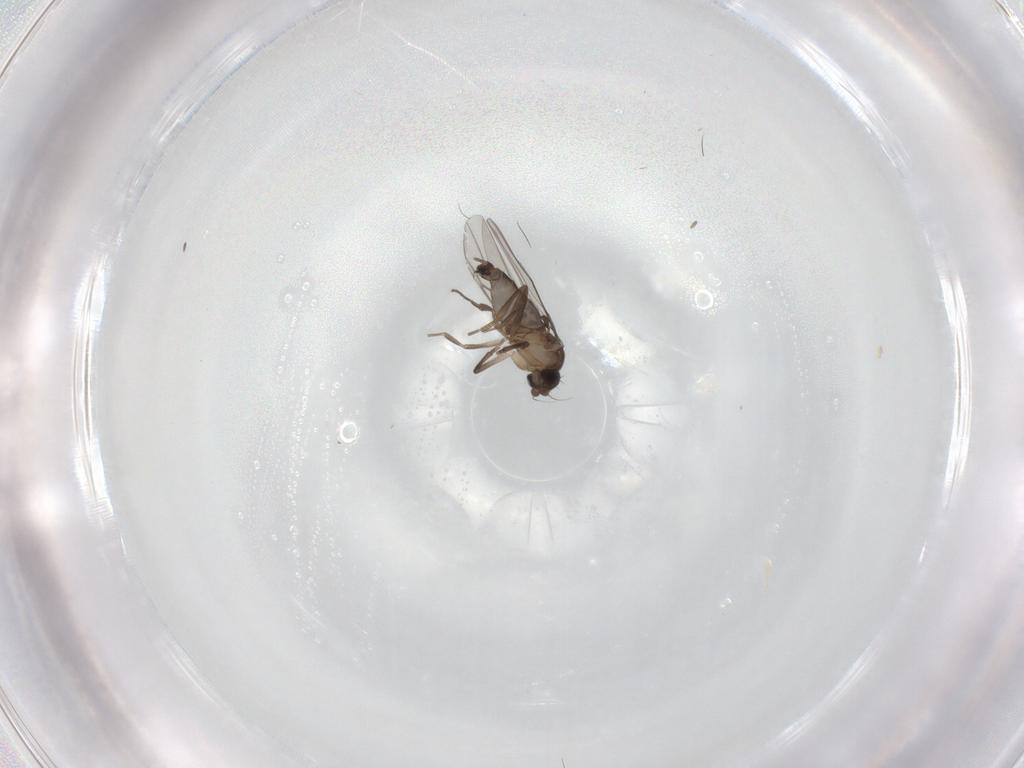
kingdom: Animalia
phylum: Arthropoda
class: Insecta
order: Diptera
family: Phoridae
